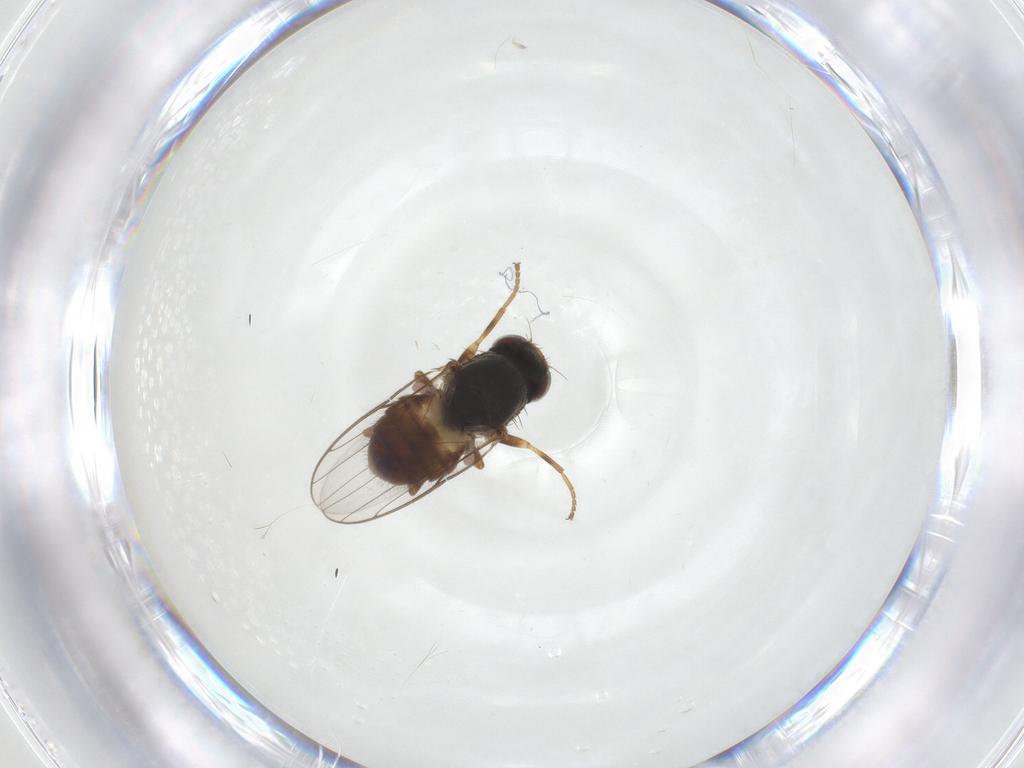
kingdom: Animalia
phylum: Arthropoda
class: Insecta
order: Diptera
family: Chloropidae
